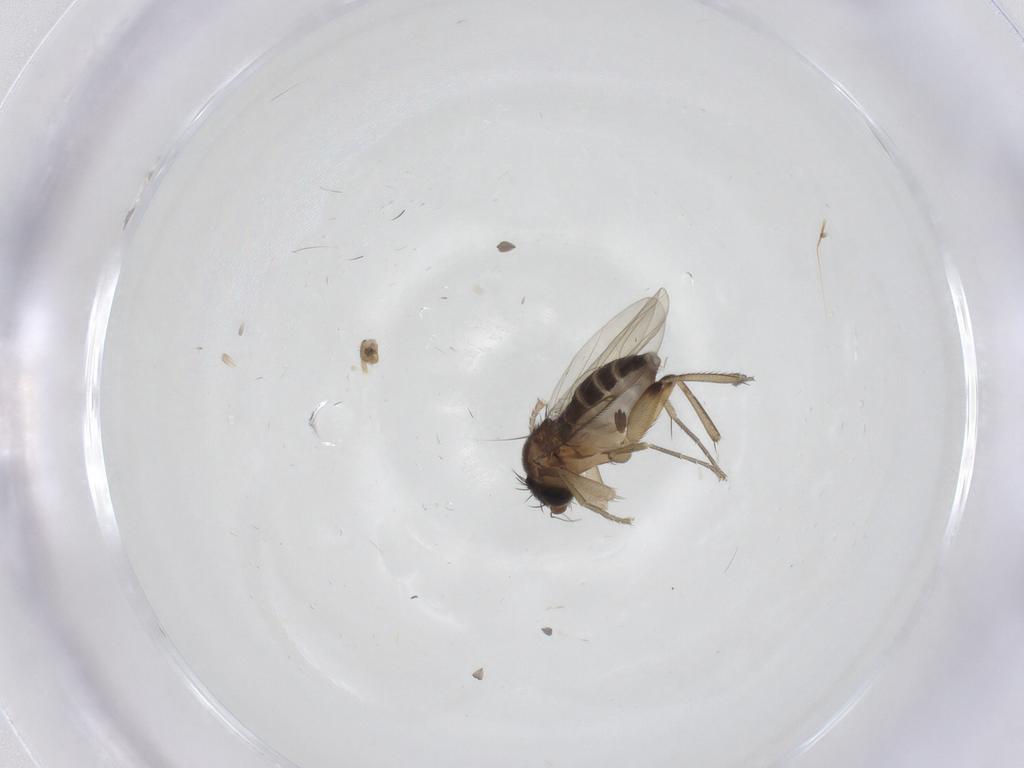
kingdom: Animalia
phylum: Arthropoda
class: Insecta
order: Diptera
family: Phoridae
